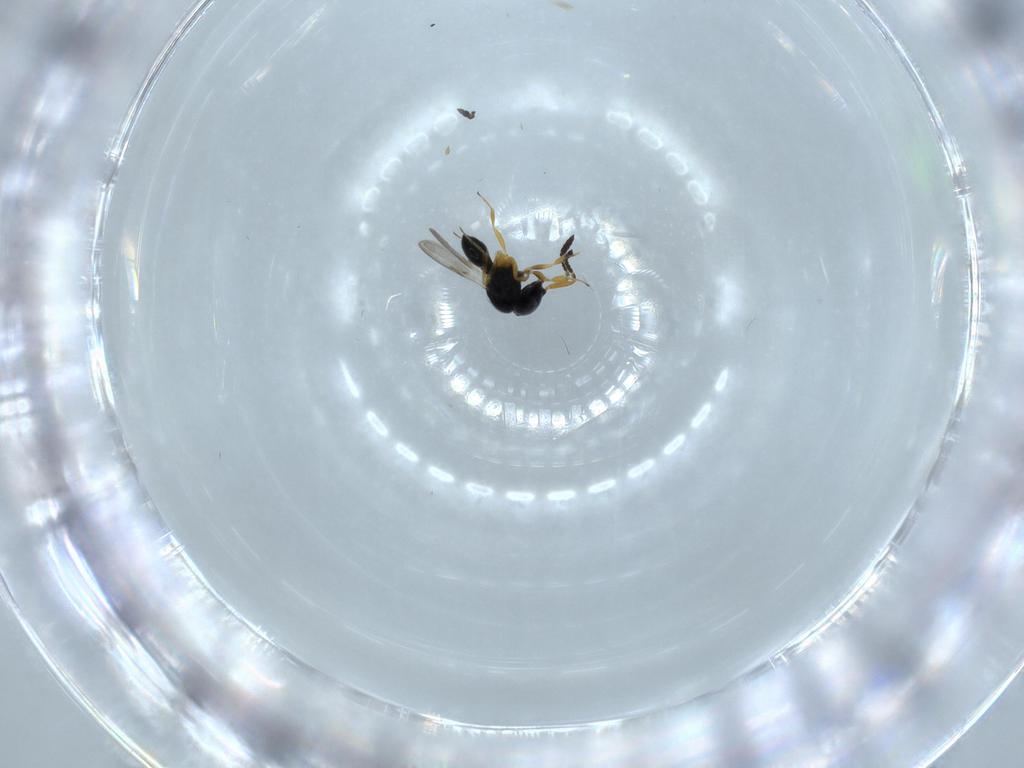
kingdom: Animalia
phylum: Arthropoda
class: Insecta
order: Hymenoptera
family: Scelionidae
